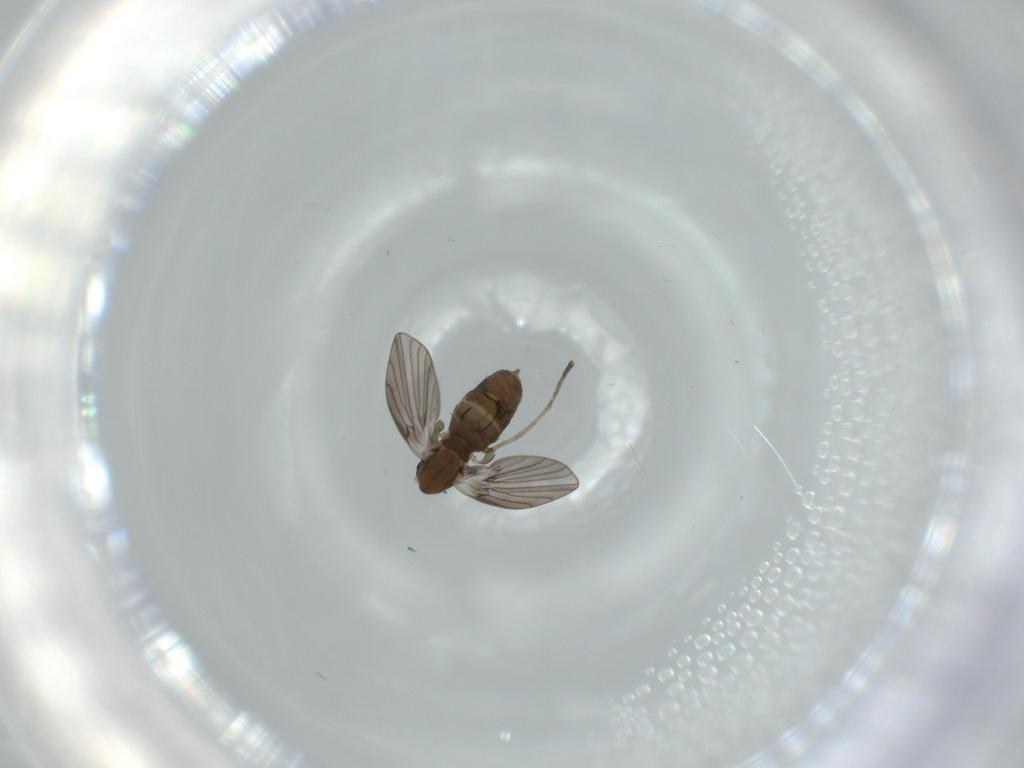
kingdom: Animalia
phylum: Arthropoda
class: Insecta
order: Diptera
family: Psychodidae
